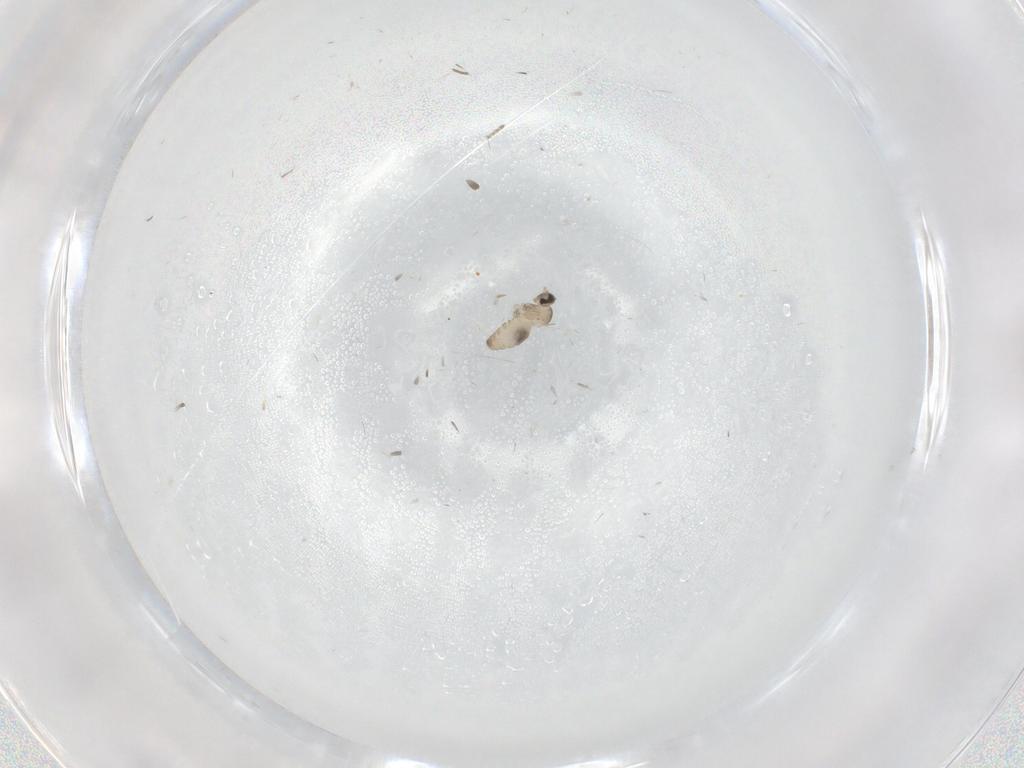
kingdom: Animalia
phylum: Arthropoda
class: Insecta
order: Diptera
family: Cecidomyiidae
